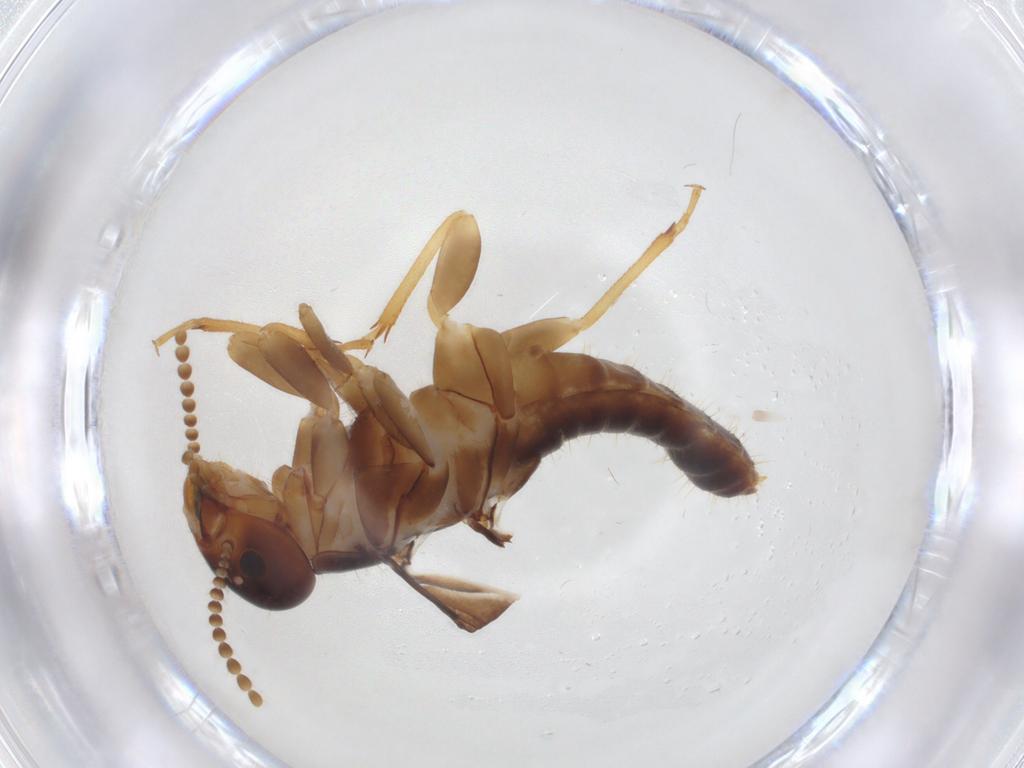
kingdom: Animalia
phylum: Arthropoda
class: Insecta
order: Blattodea
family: Kalotermitidae
